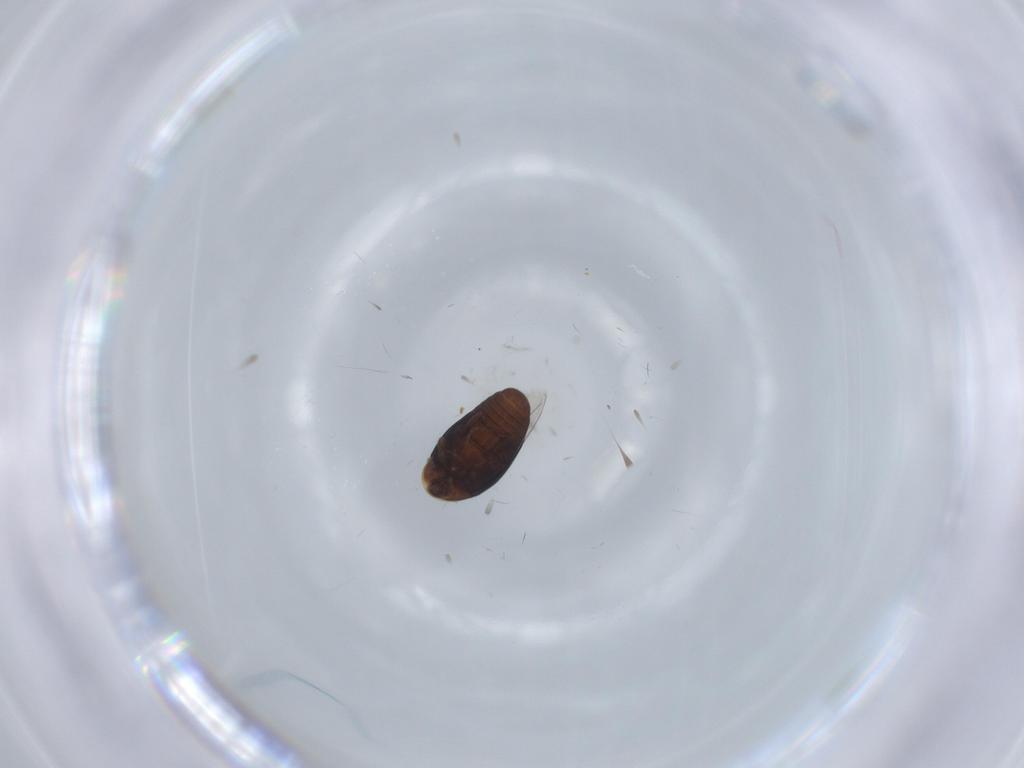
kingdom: Animalia
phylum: Arthropoda
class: Insecta
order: Coleoptera
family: Corylophidae
